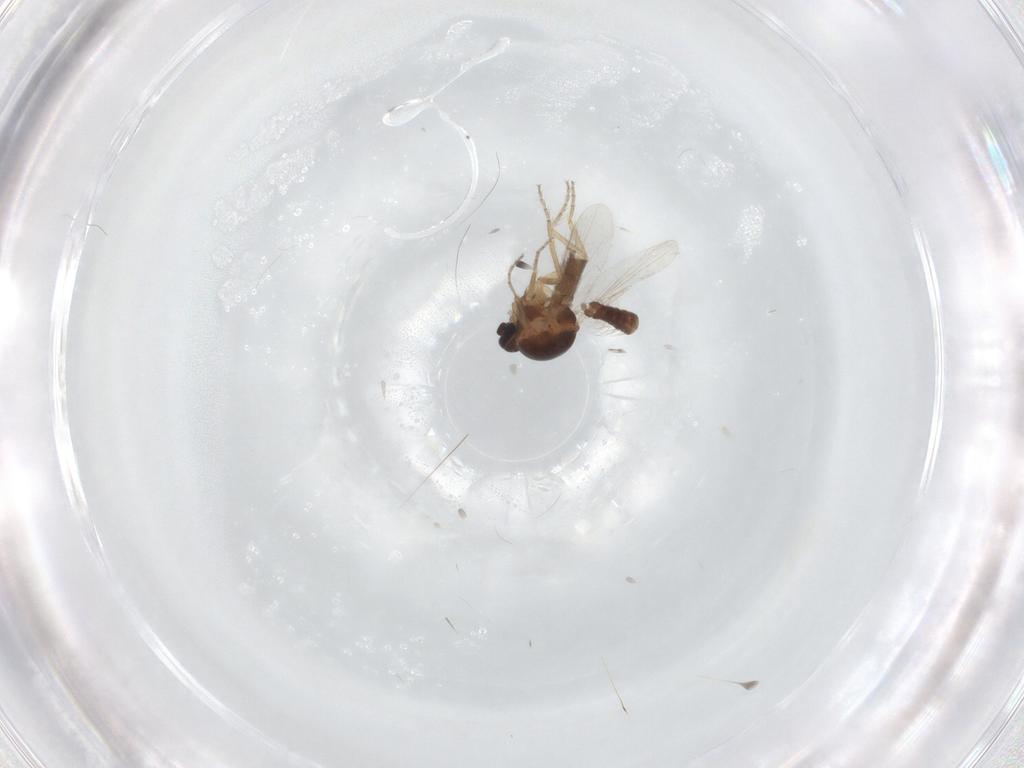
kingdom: Animalia
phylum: Arthropoda
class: Insecta
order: Diptera
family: Ceratopogonidae
